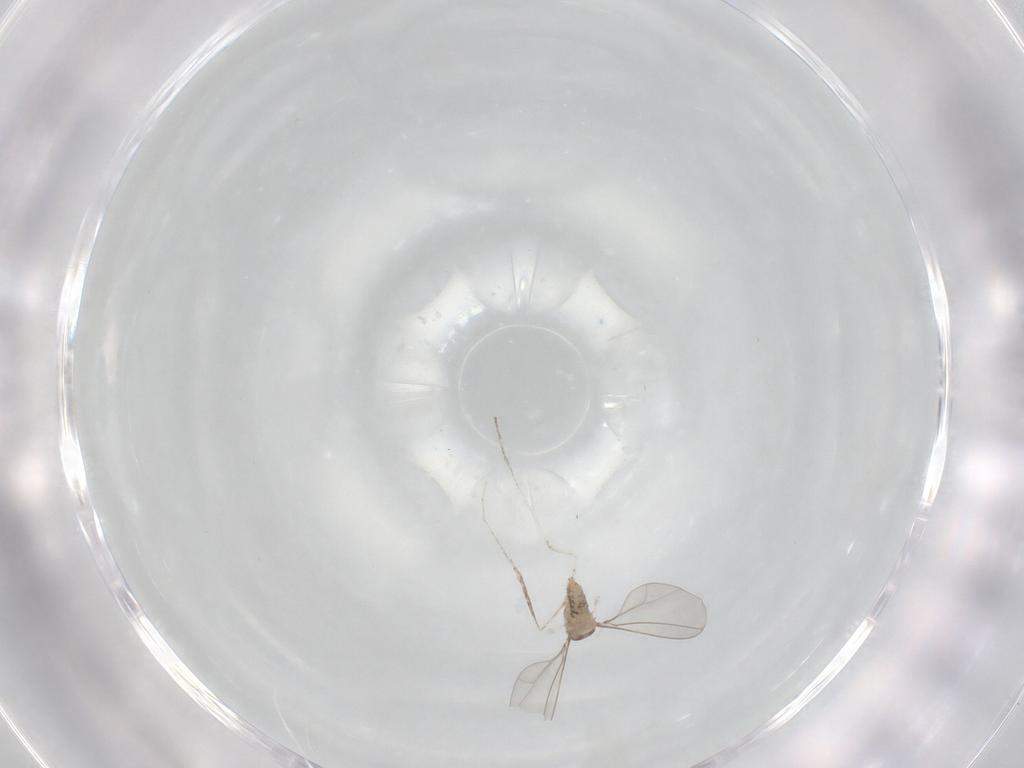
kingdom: Animalia
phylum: Arthropoda
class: Insecta
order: Diptera
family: Cecidomyiidae
